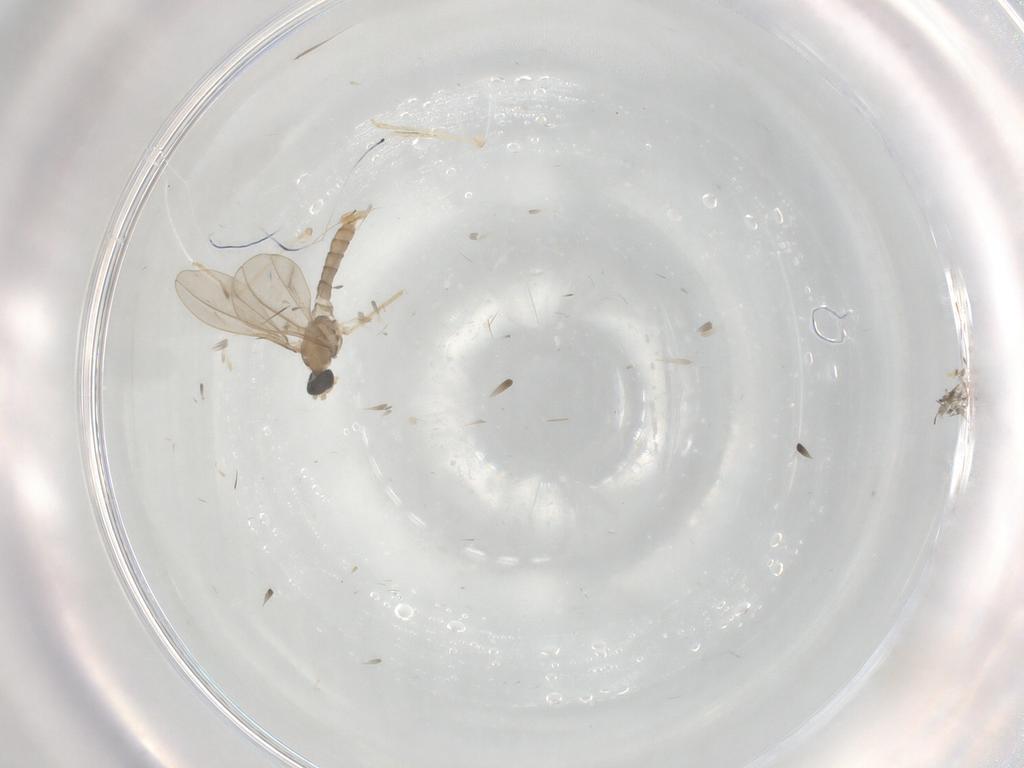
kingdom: Animalia
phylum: Arthropoda
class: Insecta
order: Diptera
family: Cecidomyiidae
